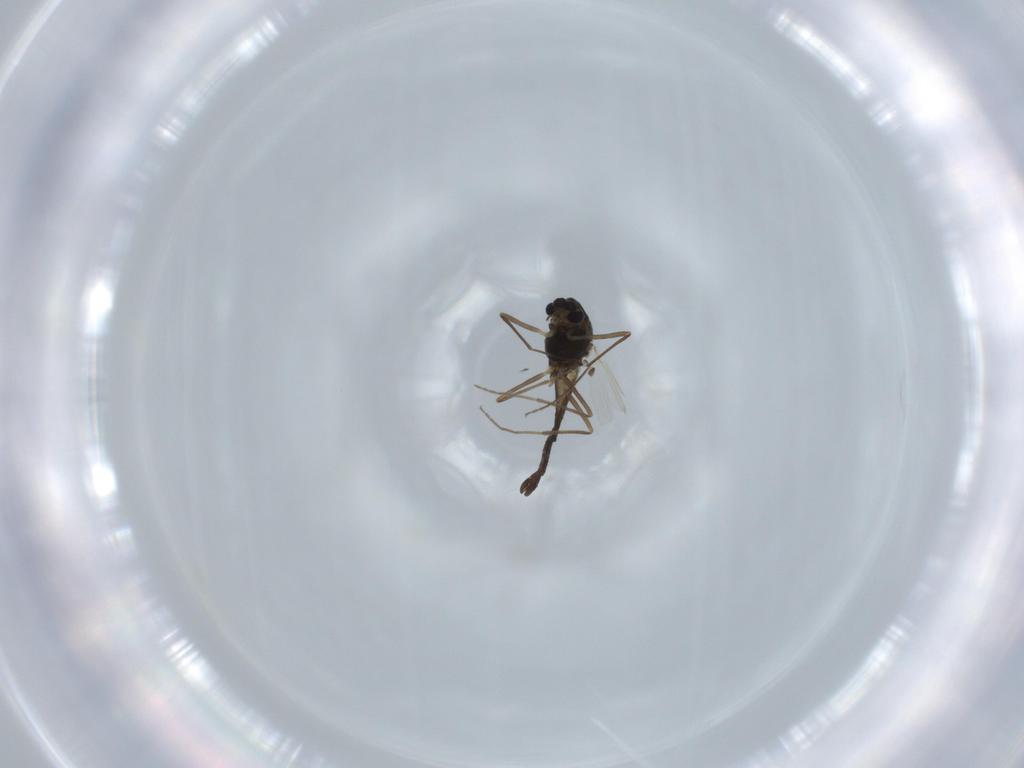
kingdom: Animalia
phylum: Arthropoda
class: Insecta
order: Diptera
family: Chironomidae
